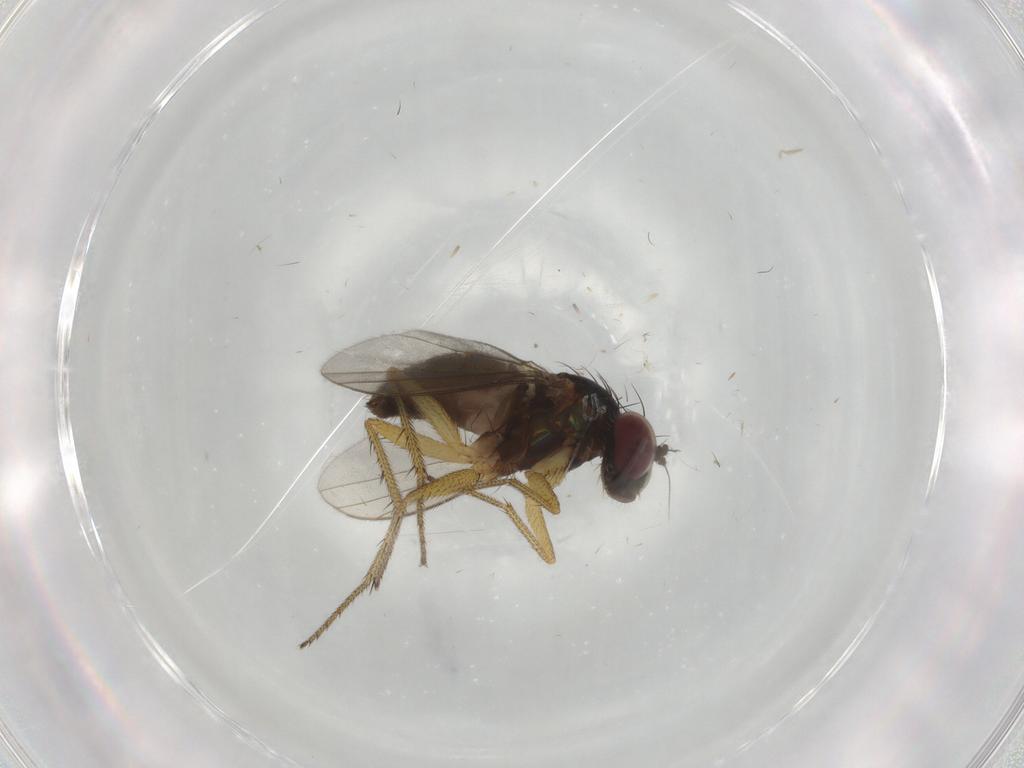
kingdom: Animalia
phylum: Arthropoda
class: Insecta
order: Diptera
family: Dolichopodidae
